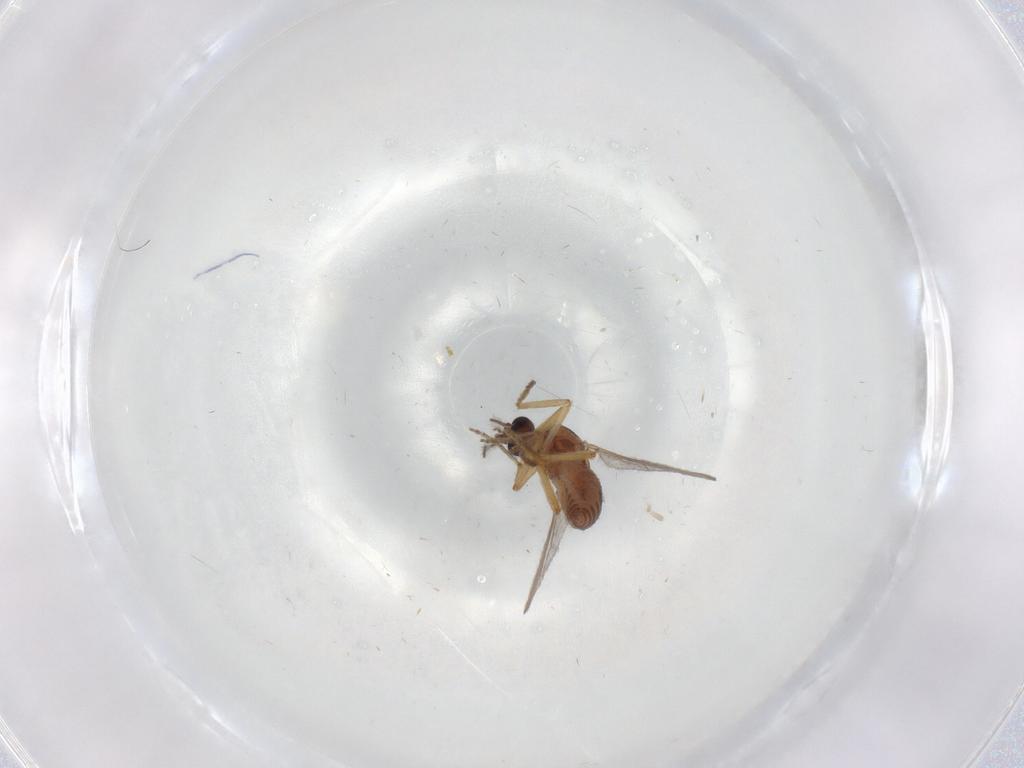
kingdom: Animalia
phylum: Arthropoda
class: Insecta
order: Diptera
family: Ceratopogonidae
